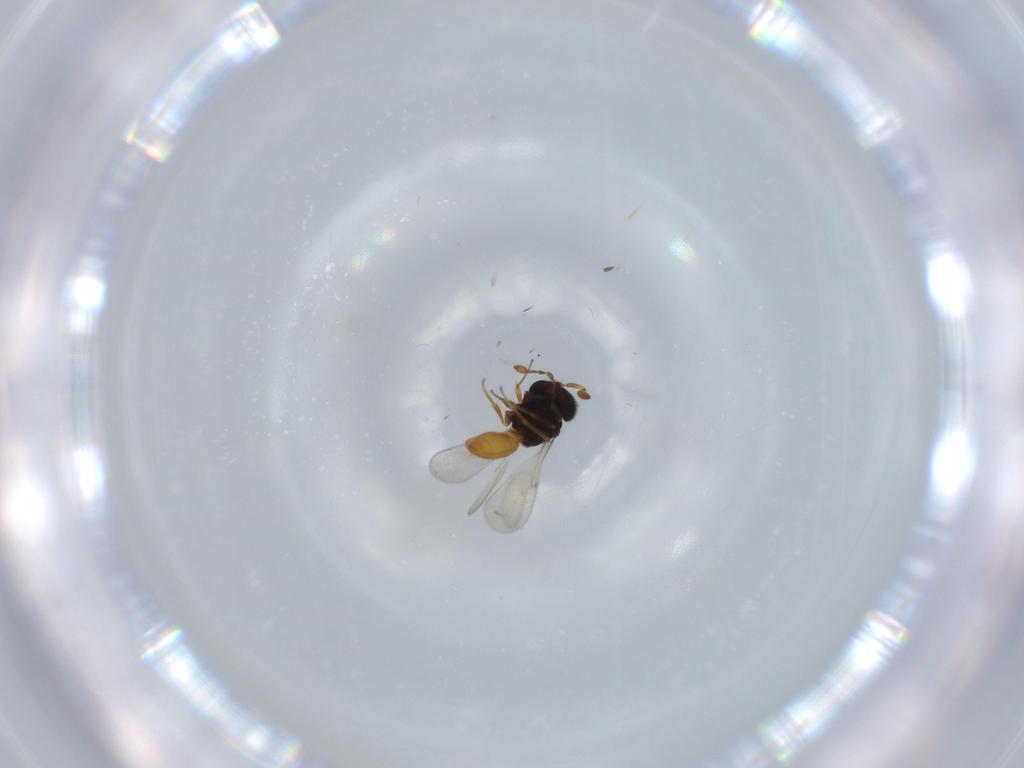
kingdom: Animalia
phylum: Arthropoda
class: Insecta
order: Hymenoptera
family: Scelionidae
